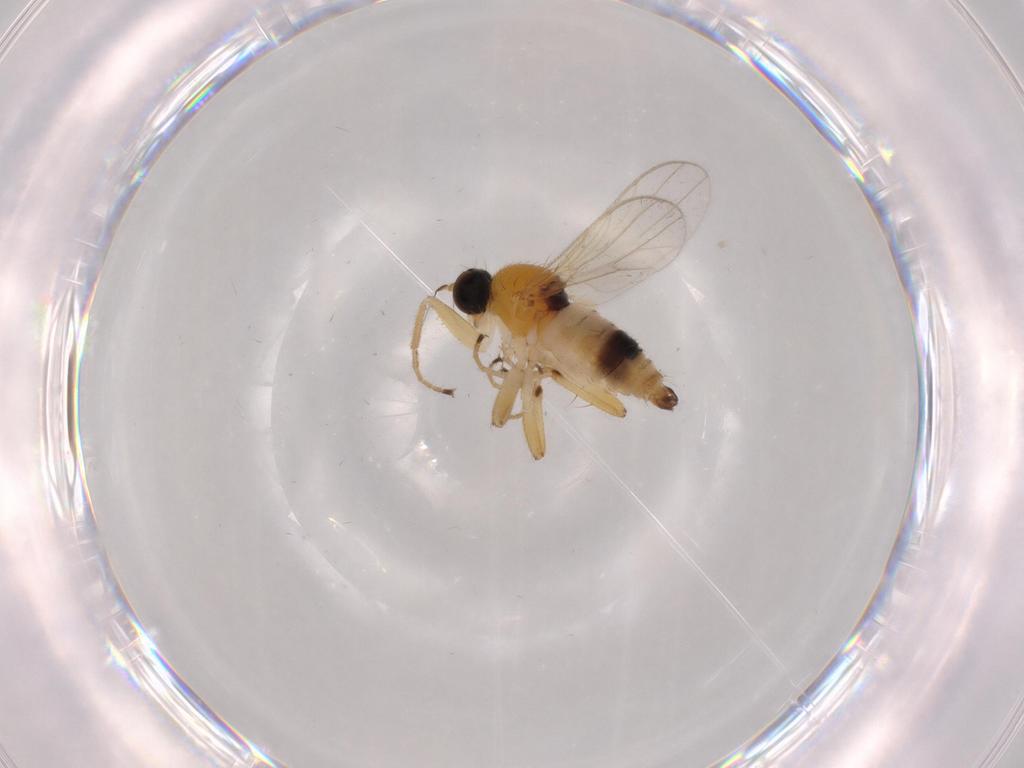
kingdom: Animalia
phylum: Arthropoda
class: Insecta
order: Diptera
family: Hybotidae
